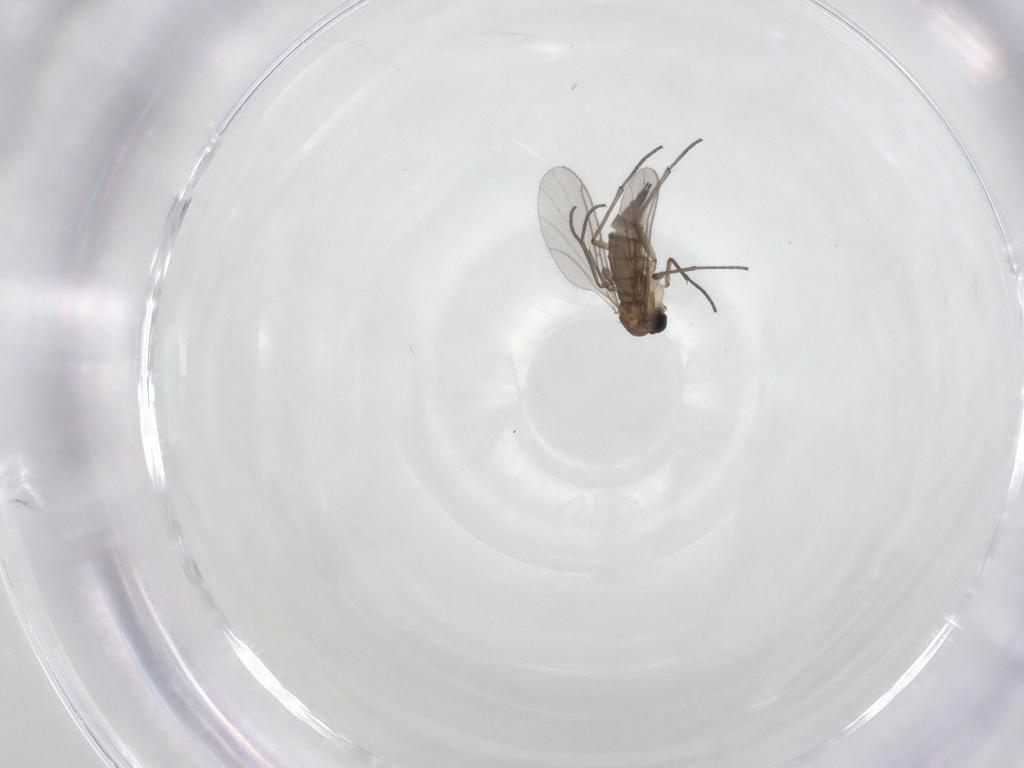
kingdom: Animalia
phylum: Arthropoda
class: Insecta
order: Diptera
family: Sciaridae
